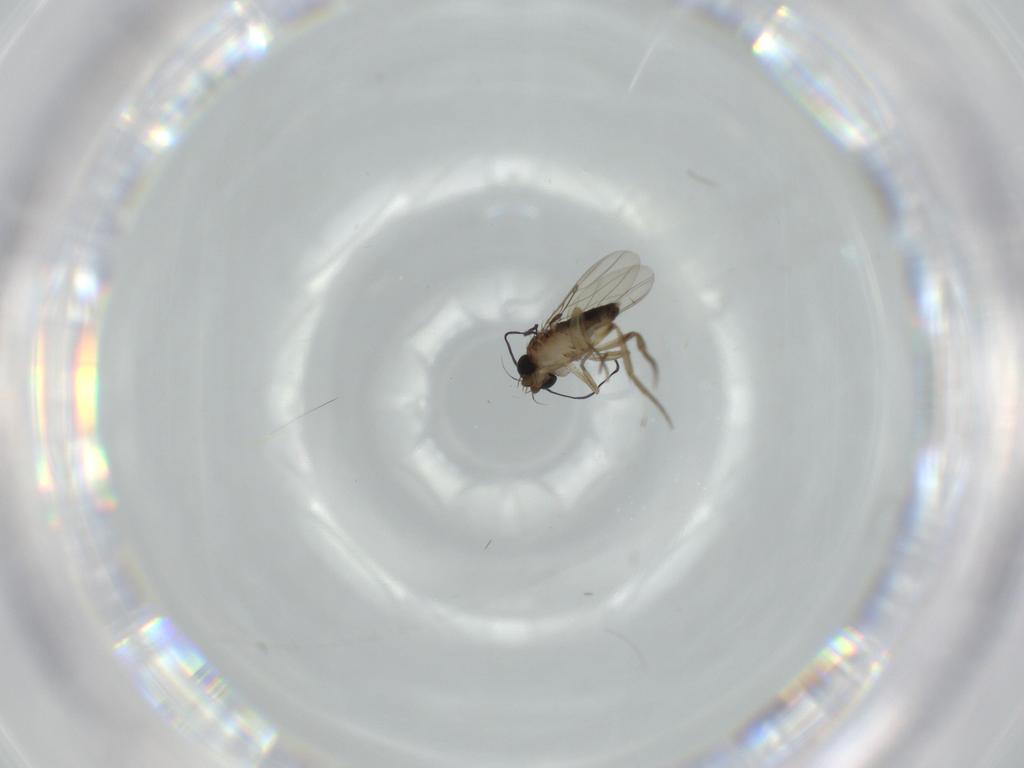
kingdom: Animalia
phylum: Arthropoda
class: Insecta
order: Diptera
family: Phoridae
